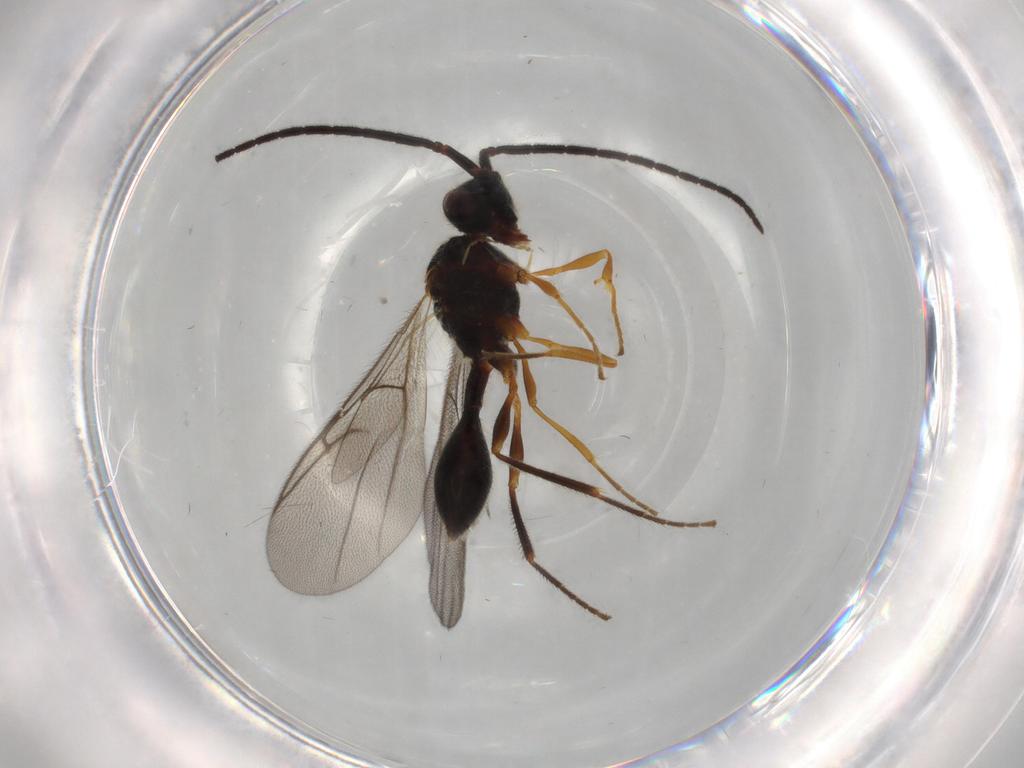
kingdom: Animalia
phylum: Arthropoda
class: Insecta
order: Hymenoptera
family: Diapriidae
